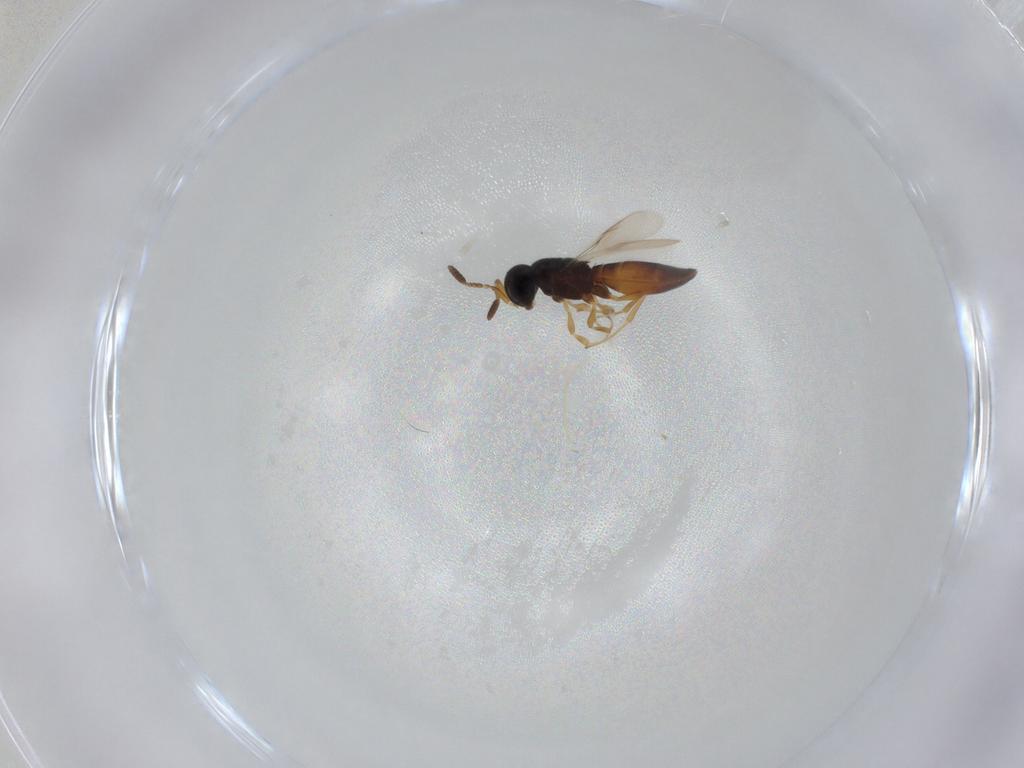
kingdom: Animalia
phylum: Arthropoda
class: Insecta
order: Hymenoptera
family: Scelionidae
